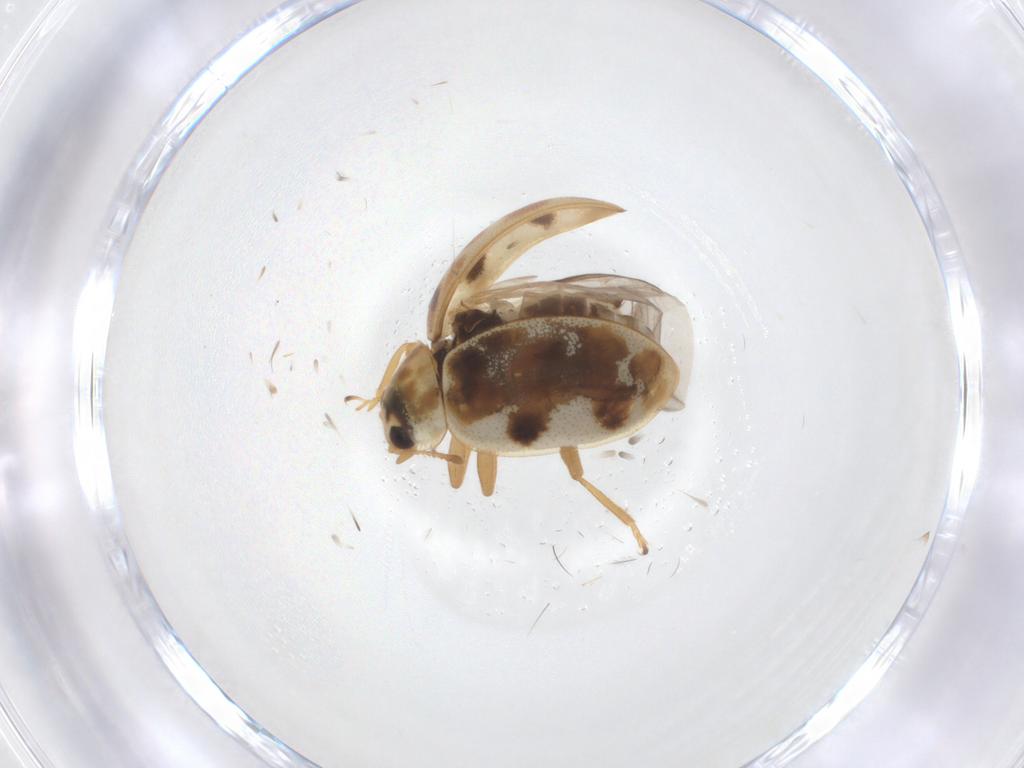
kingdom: Animalia
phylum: Arthropoda
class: Insecta
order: Coleoptera
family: Coccinellidae
